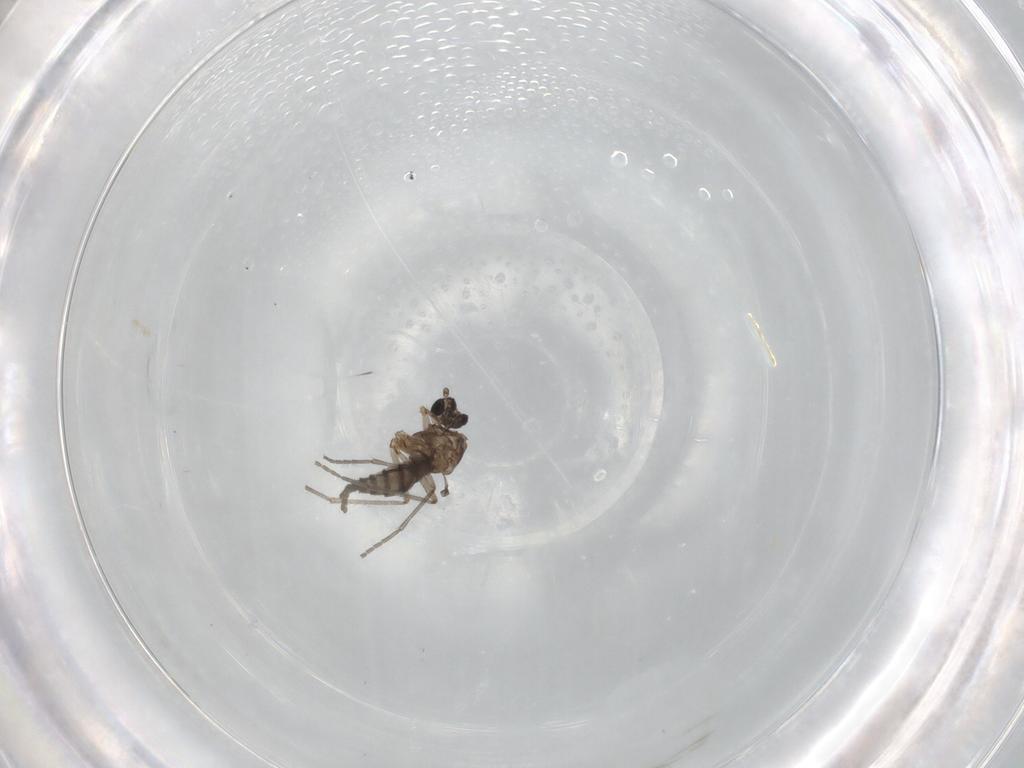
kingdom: Animalia
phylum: Arthropoda
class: Insecta
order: Diptera
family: Sciaridae
